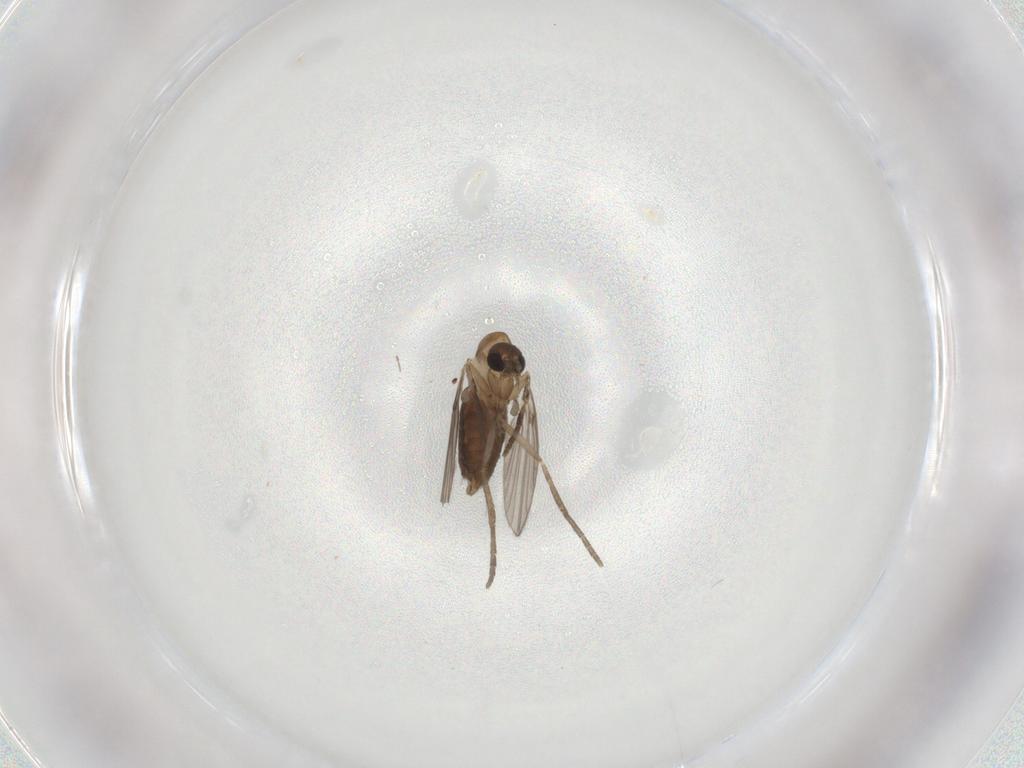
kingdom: Animalia
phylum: Arthropoda
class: Insecta
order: Diptera
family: Psychodidae
